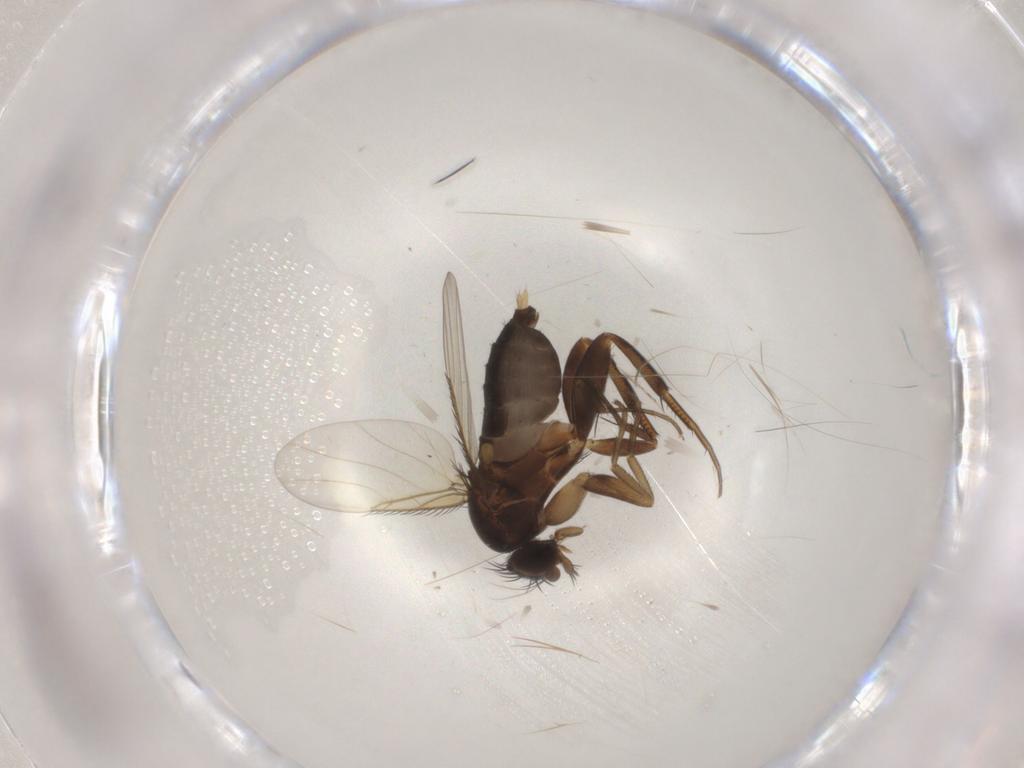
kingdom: Animalia
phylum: Arthropoda
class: Insecta
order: Diptera
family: Phoridae
